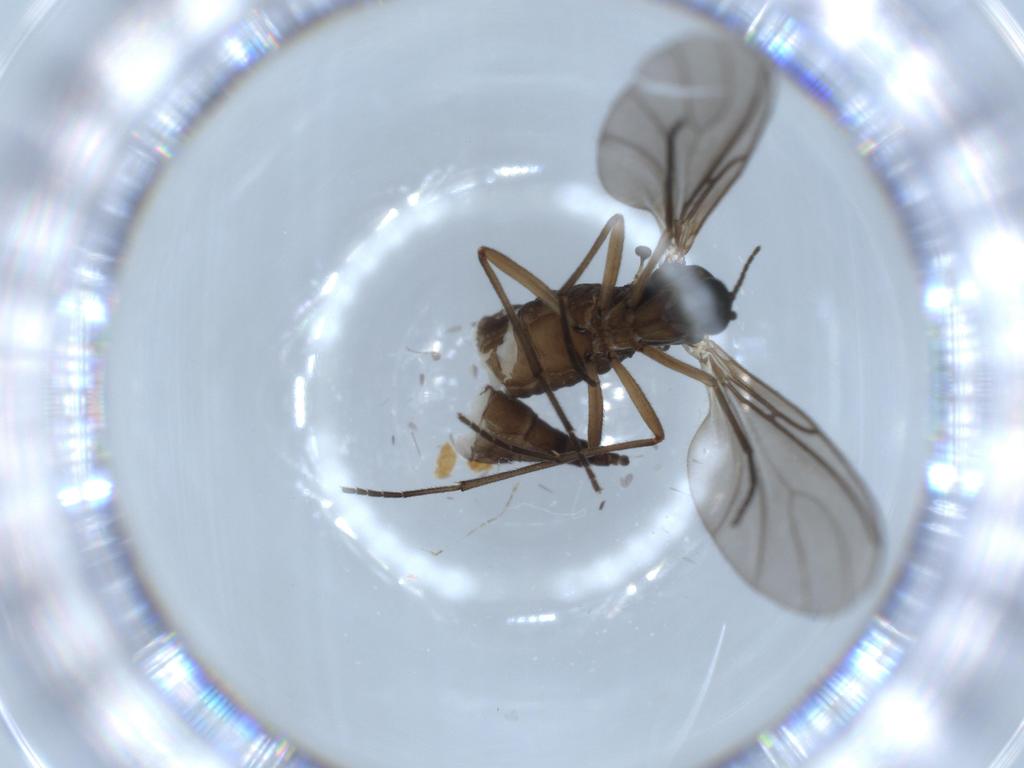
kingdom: Animalia
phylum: Arthropoda
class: Insecta
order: Diptera
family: Sciaridae
